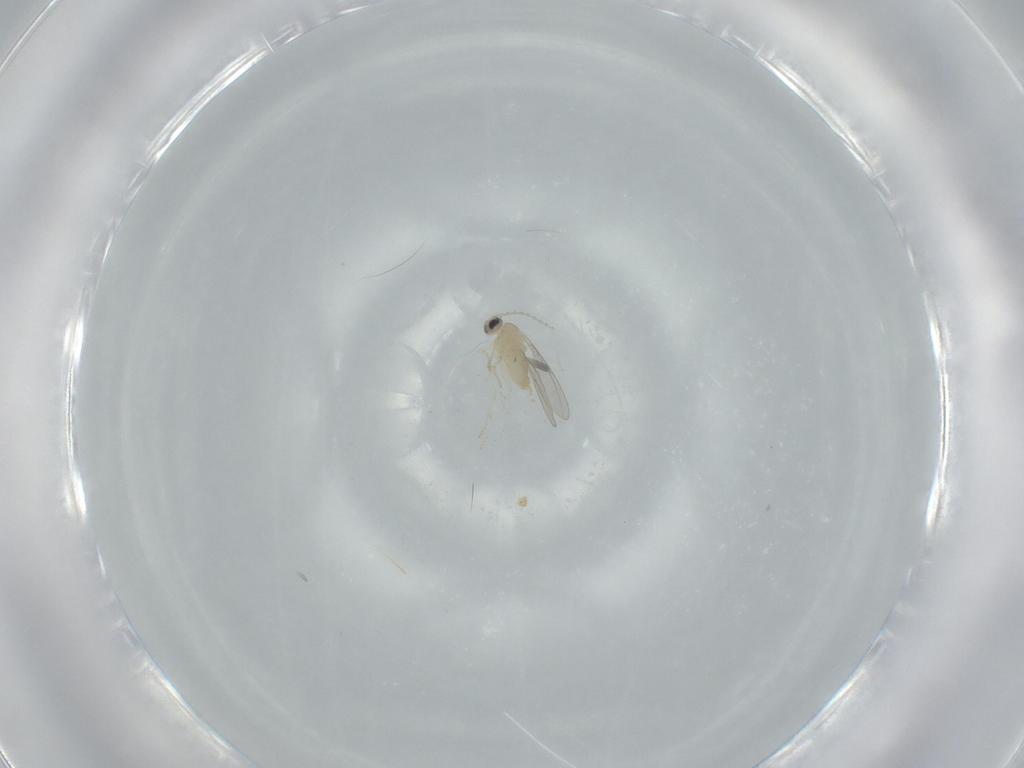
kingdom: Animalia
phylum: Arthropoda
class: Insecta
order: Diptera
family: Cecidomyiidae
